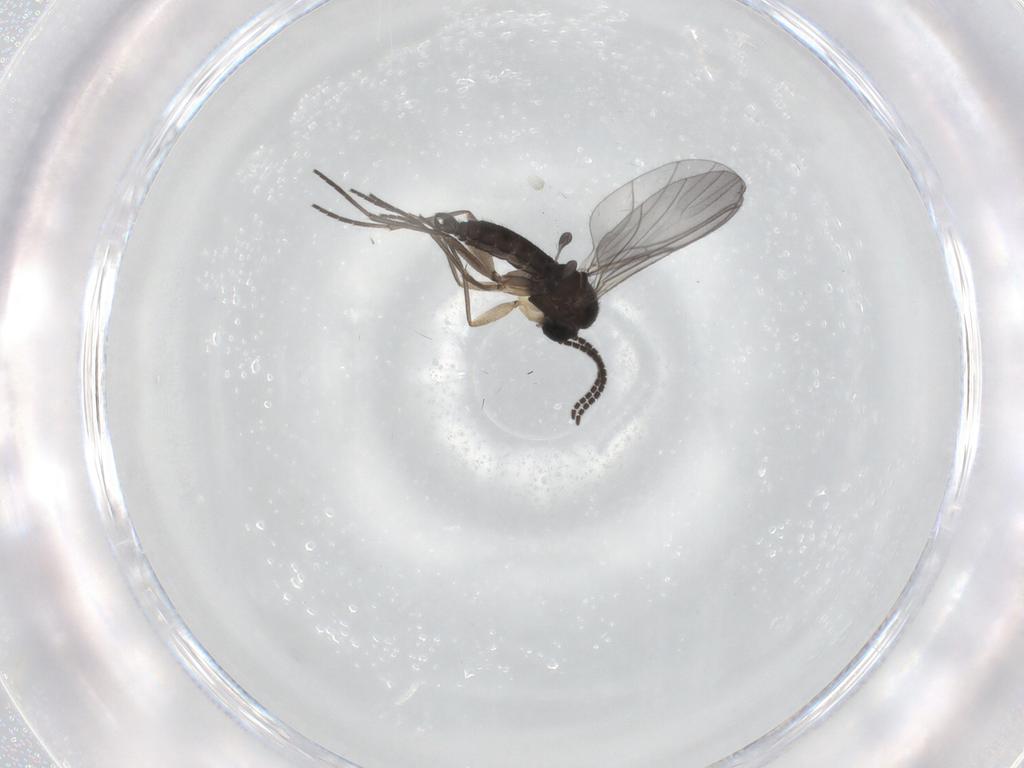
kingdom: Animalia
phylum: Arthropoda
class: Insecta
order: Diptera
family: Sciaridae
